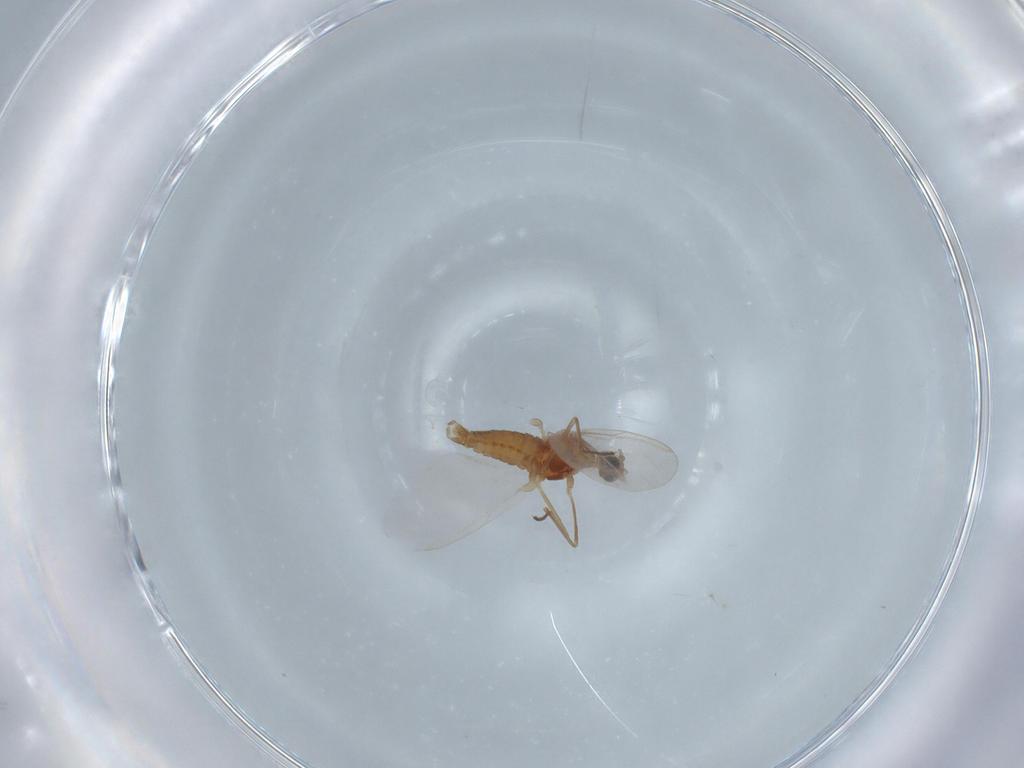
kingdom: Animalia
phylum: Arthropoda
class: Insecta
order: Diptera
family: Cecidomyiidae
